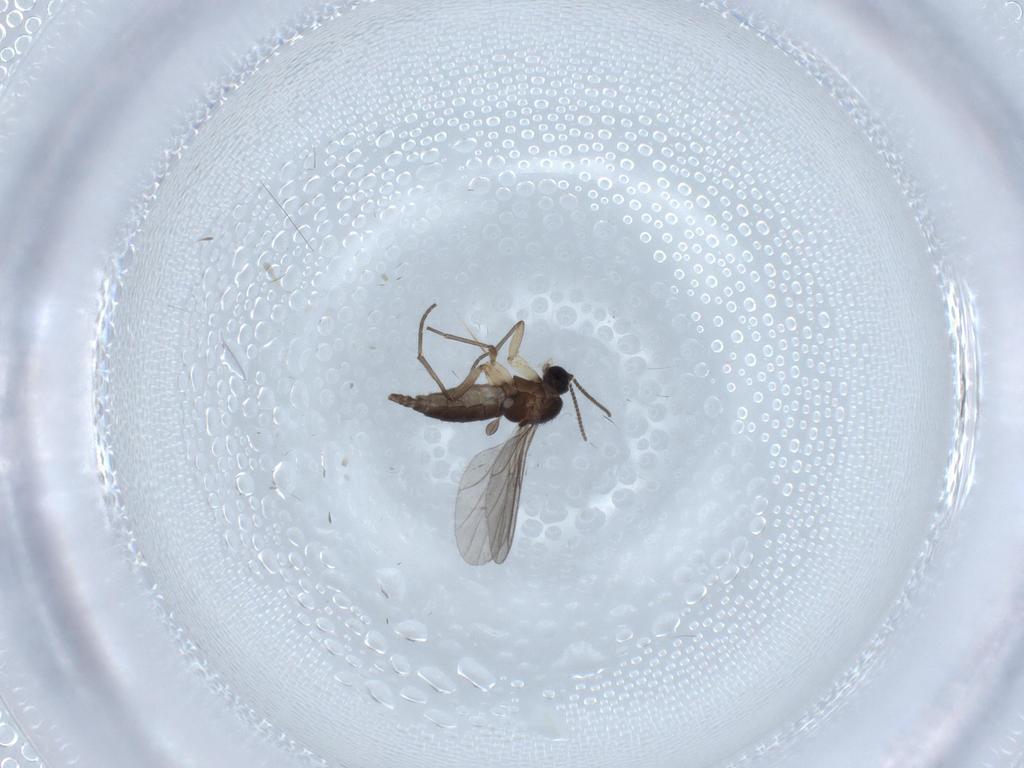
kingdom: Animalia
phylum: Arthropoda
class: Insecta
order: Diptera
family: Sciaridae
